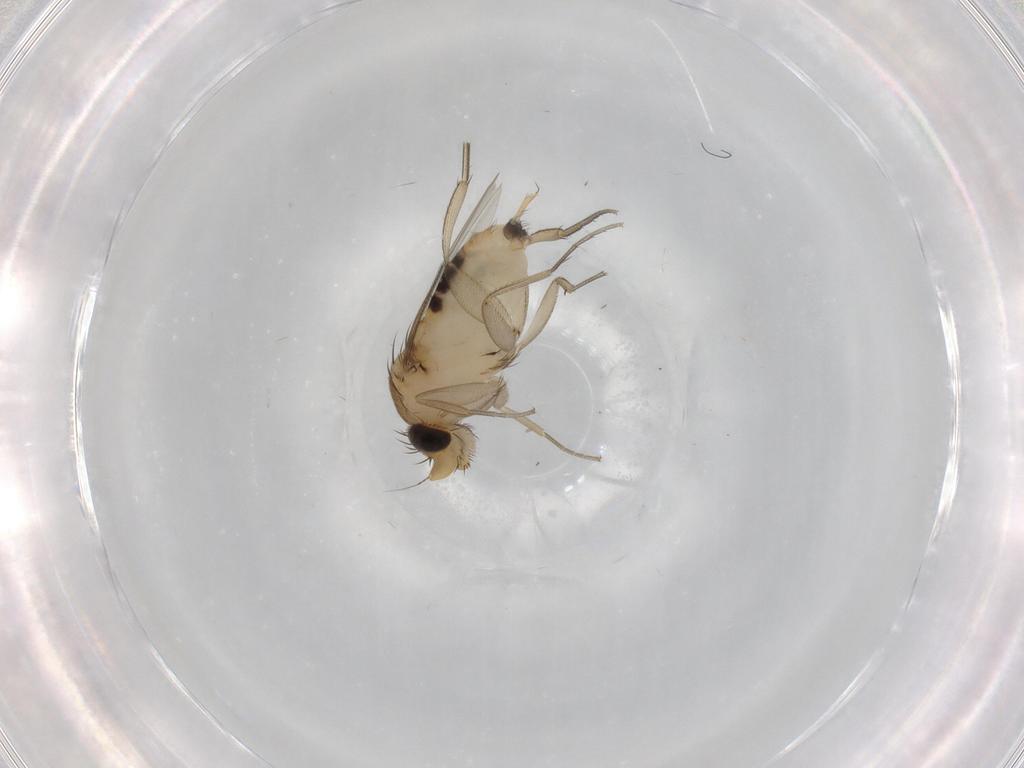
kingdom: Animalia
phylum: Arthropoda
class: Insecta
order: Diptera
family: Phoridae
